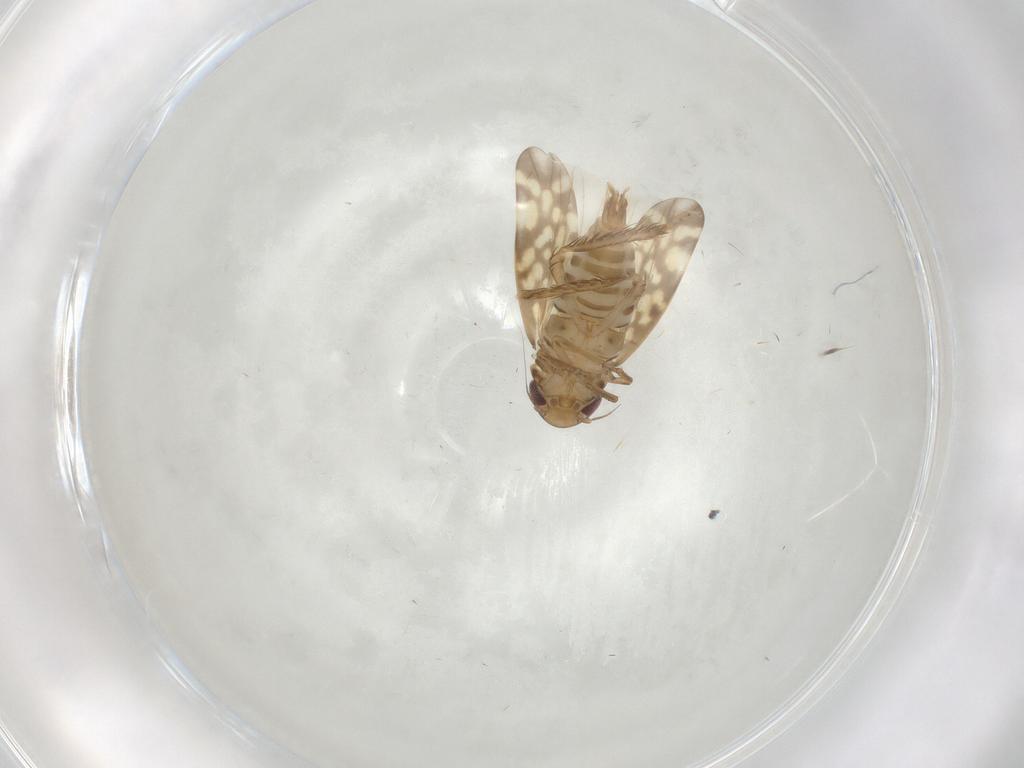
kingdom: Animalia
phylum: Arthropoda
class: Insecta
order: Hemiptera
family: Cicadellidae
